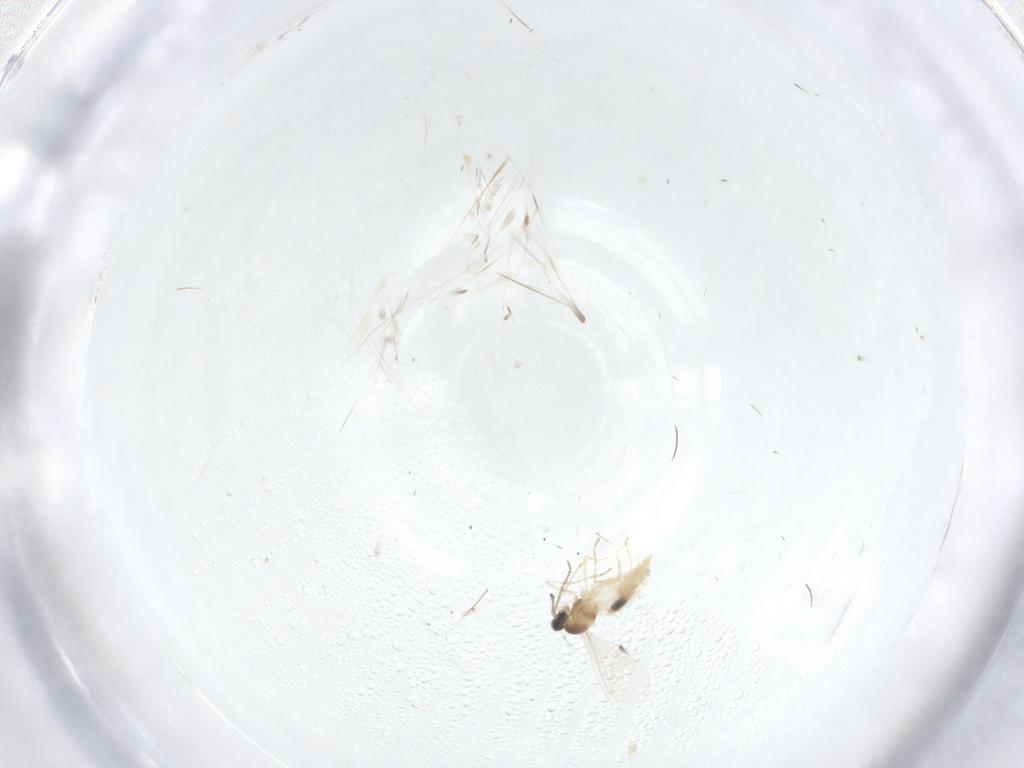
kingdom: Animalia
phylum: Arthropoda
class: Insecta
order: Diptera
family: Cecidomyiidae
